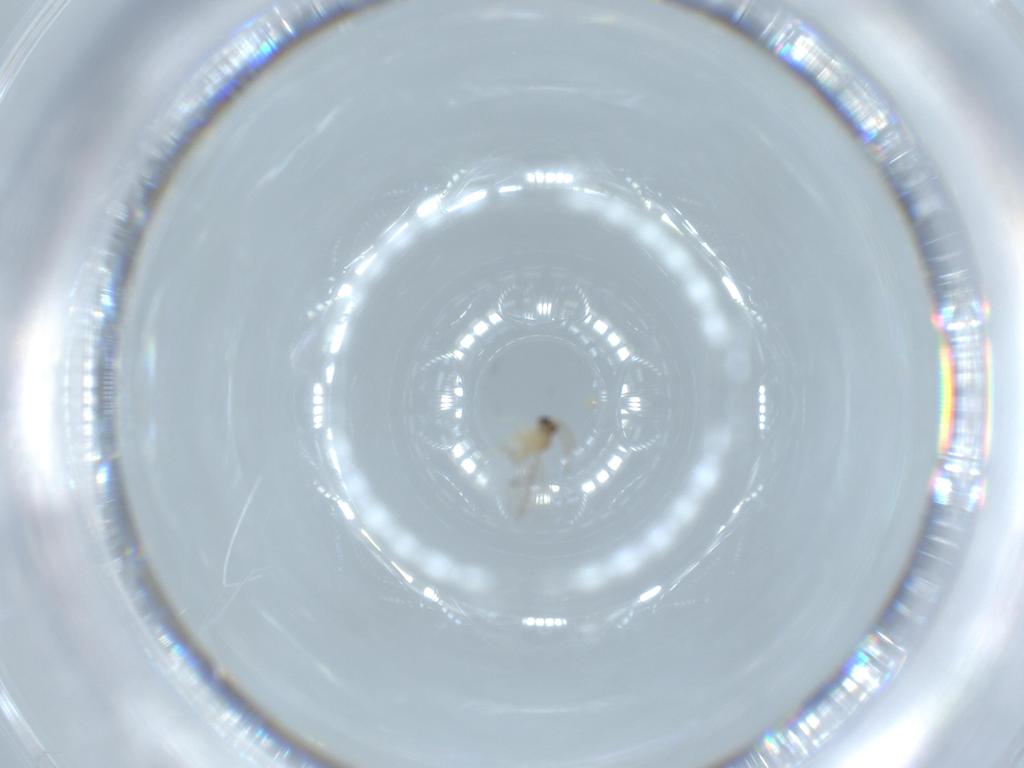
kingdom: Animalia
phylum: Arthropoda
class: Insecta
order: Diptera
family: Cecidomyiidae
